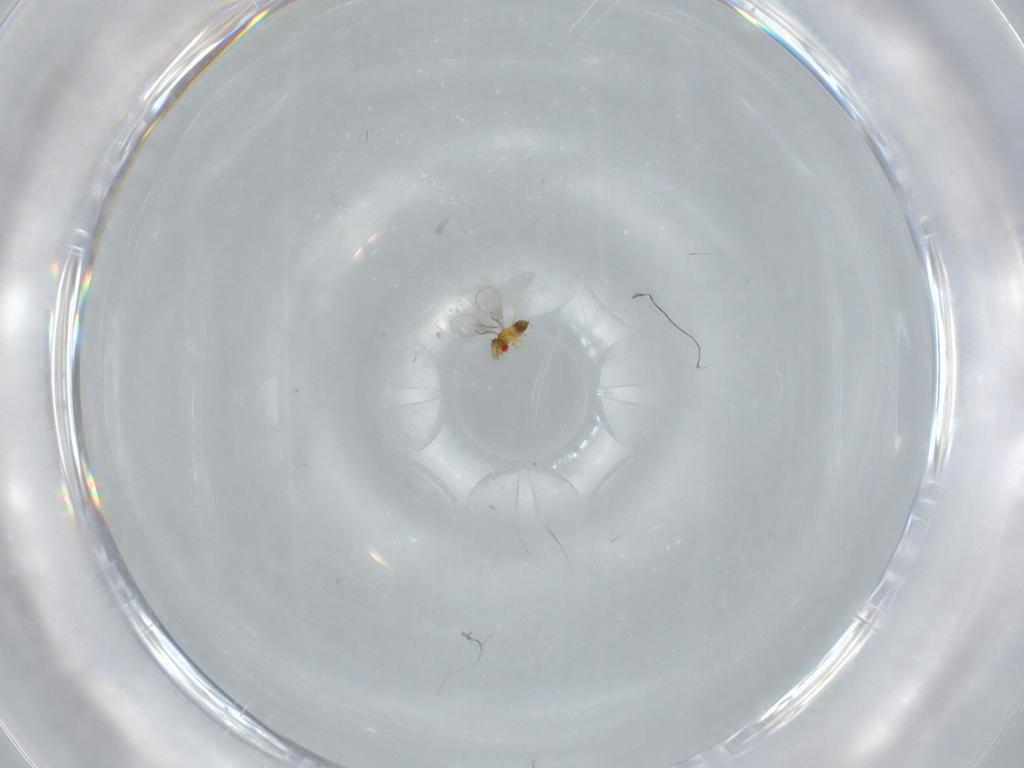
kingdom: Animalia
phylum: Arthropoda
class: Insecta
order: Hymenoptera
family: Trichogrammatidae
